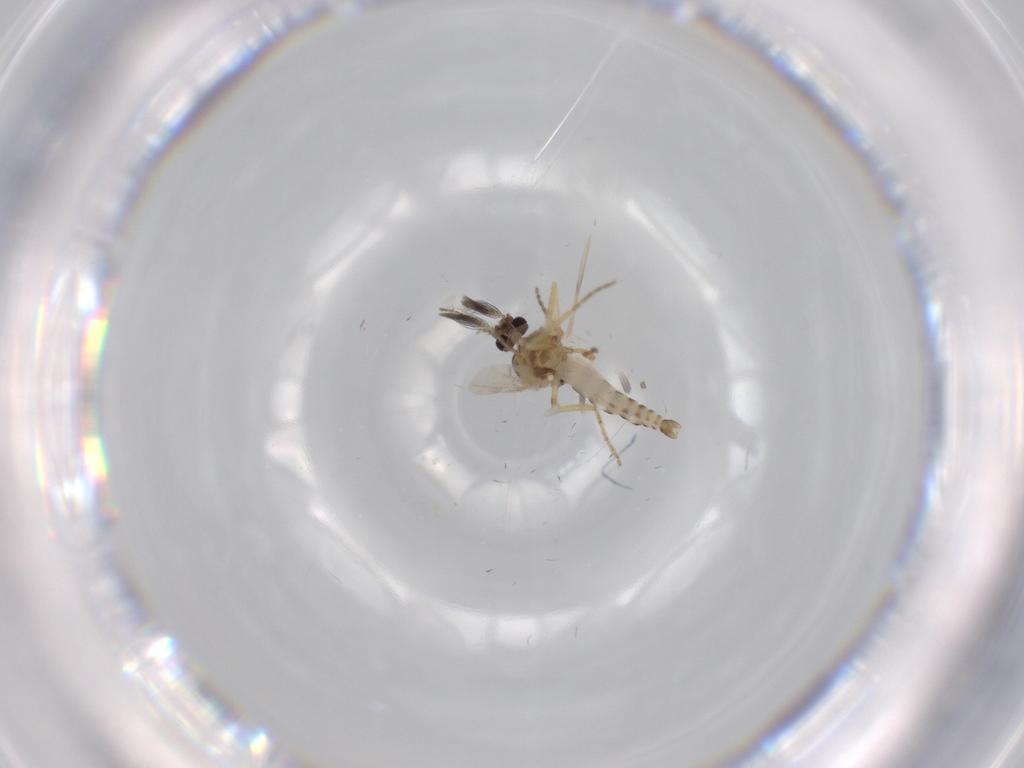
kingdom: Animalia
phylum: Arthropoda
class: Insecta
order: Diptera
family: Ceratopogonidae
